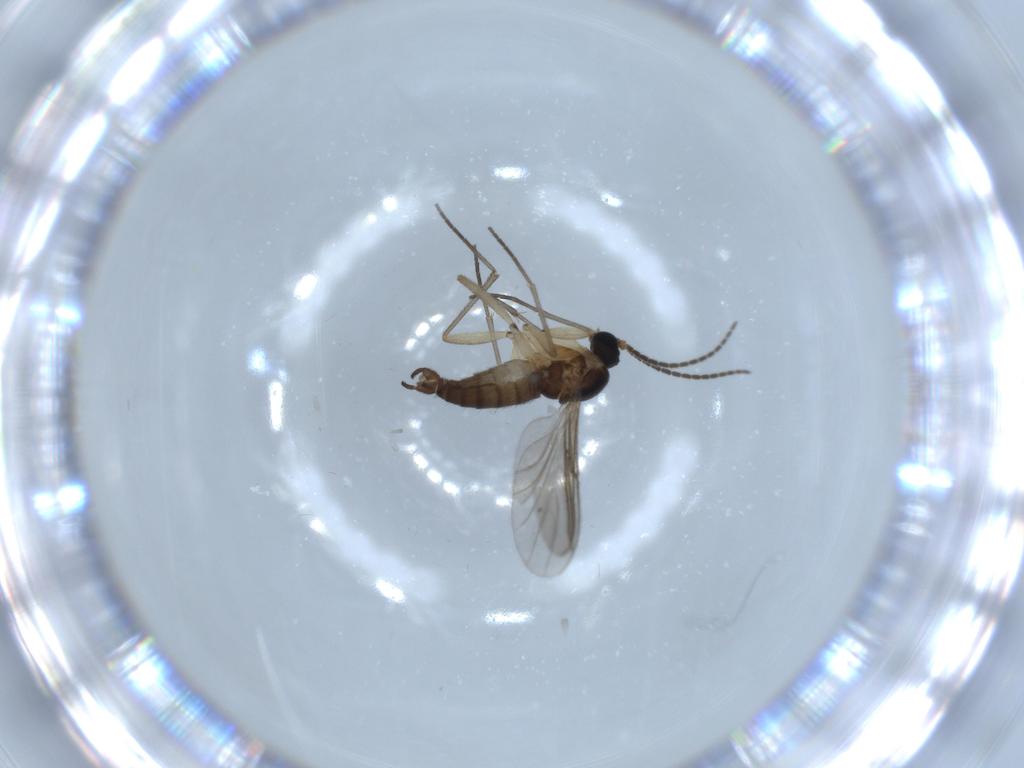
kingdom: Animalia
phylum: Arthropoda
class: Insecta
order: Diptera
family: Sciaridae
